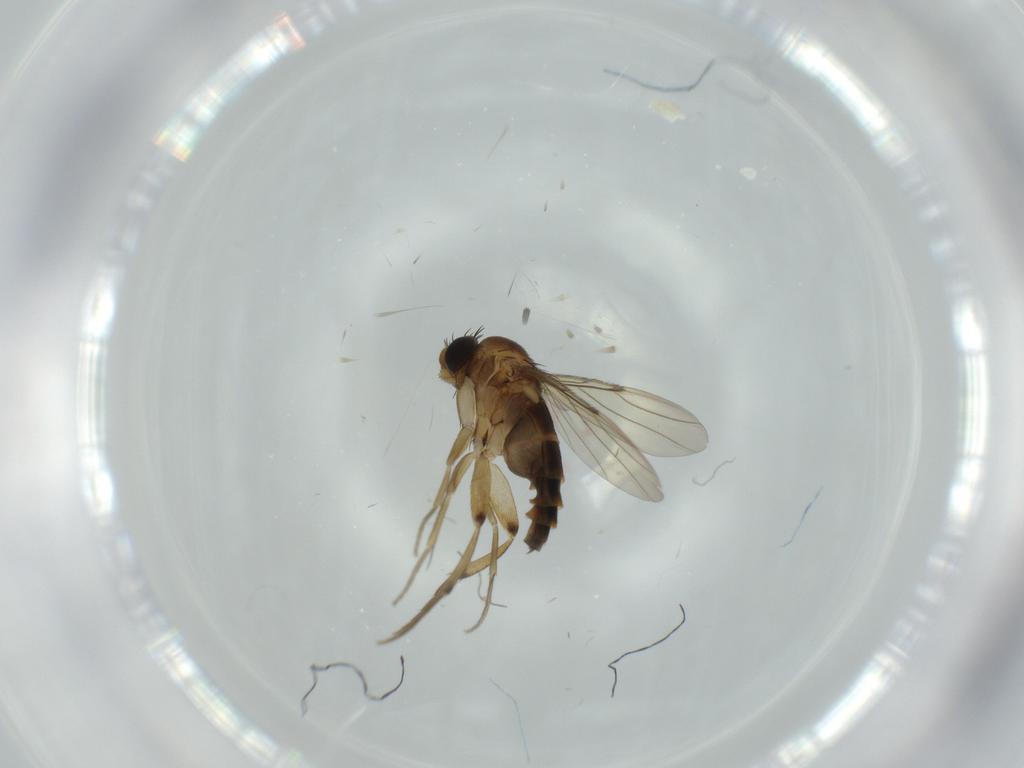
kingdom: Animalia
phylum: Arthropoda
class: Insecta
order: Diptera
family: Phoridae
